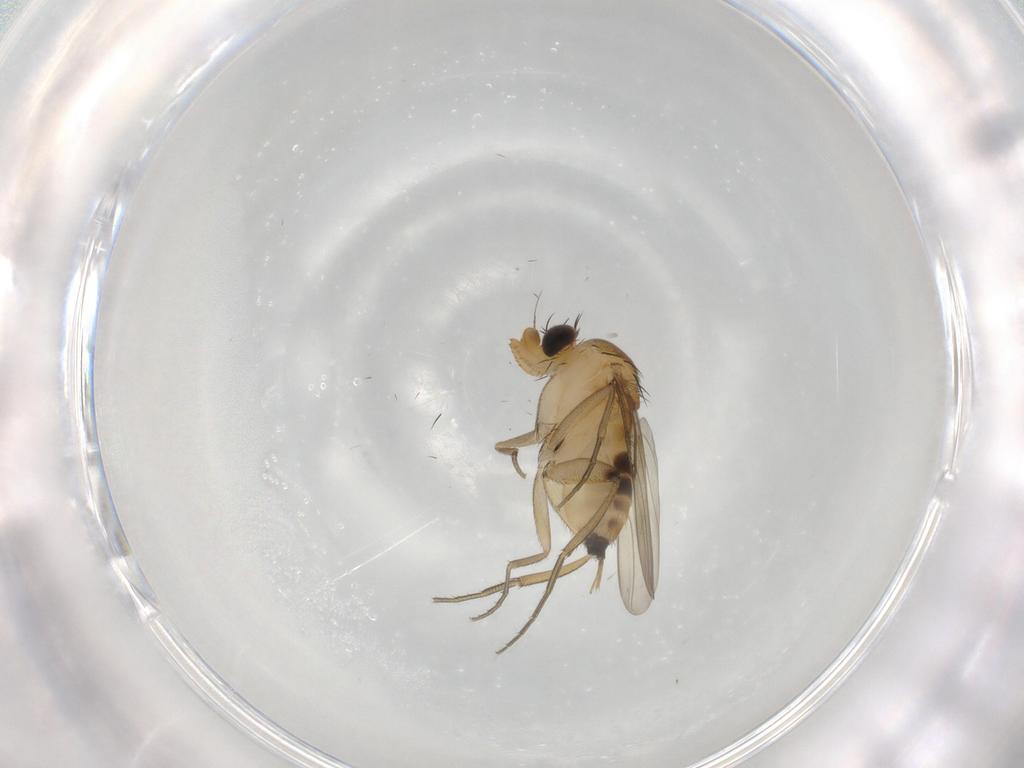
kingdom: Animalia
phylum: Arthropoda
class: Insecta
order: Diptera
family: Phoridae
